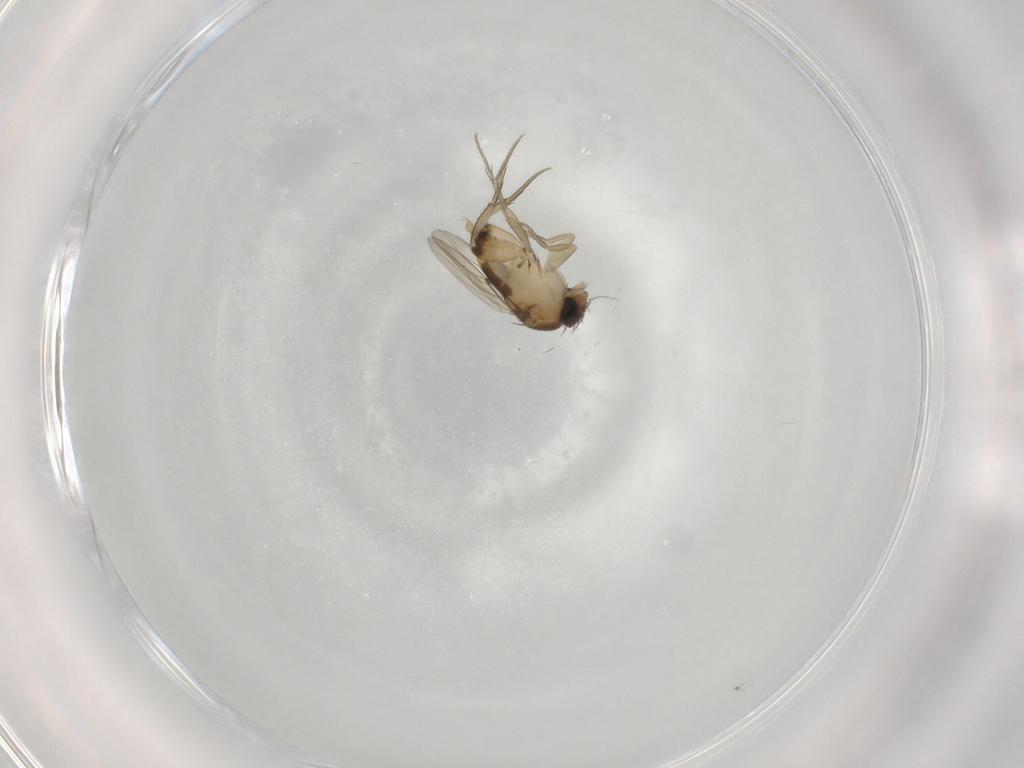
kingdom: Animalia
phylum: Arthropoda
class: Insecta
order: Diptera
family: Phoridae
